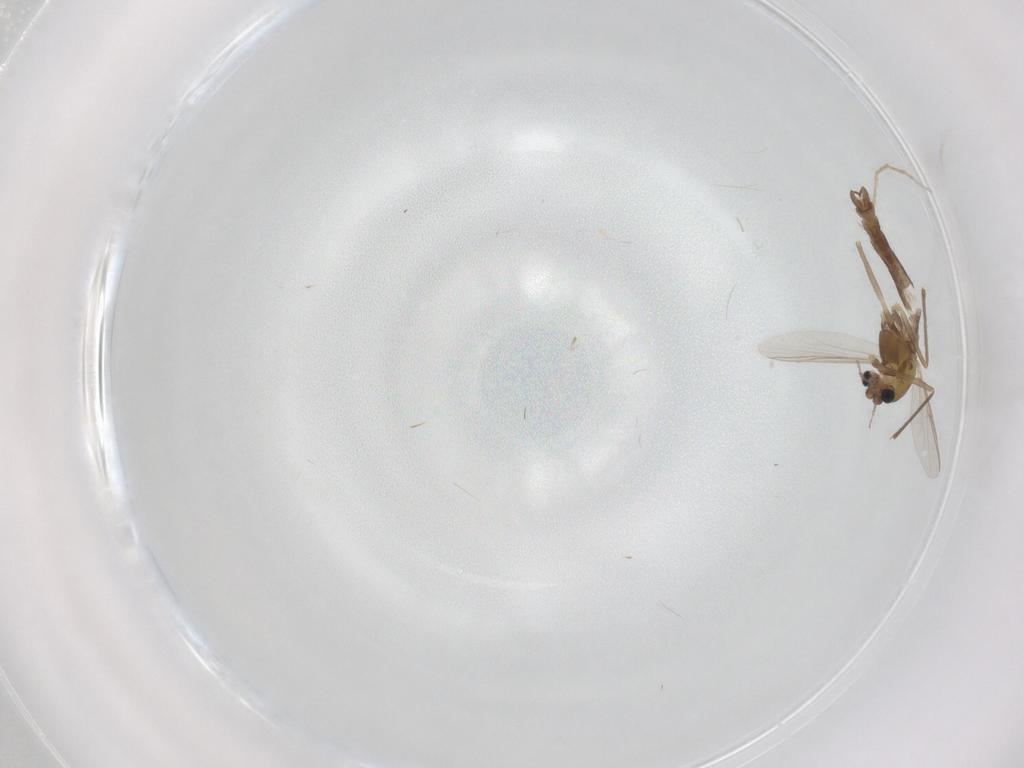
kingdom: Animalia
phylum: Arthropoda
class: Insecta
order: Diptera
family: Chironomidae
